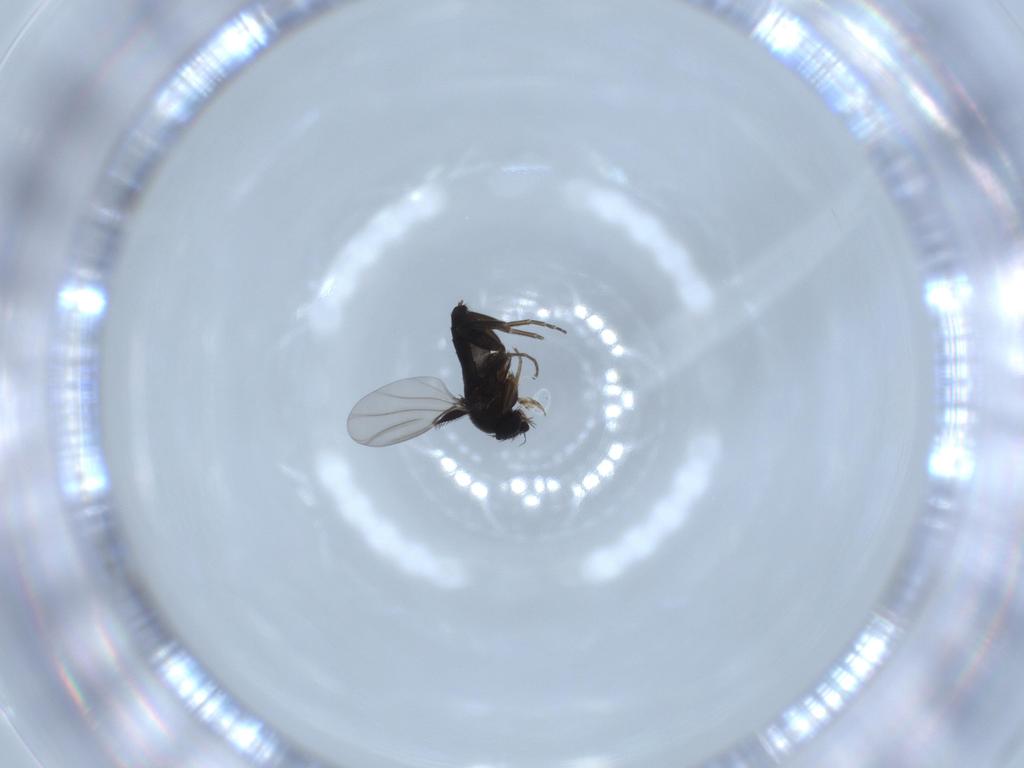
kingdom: Animalia
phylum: Arthropoda
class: Insecta
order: Diptera
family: Phoridae
